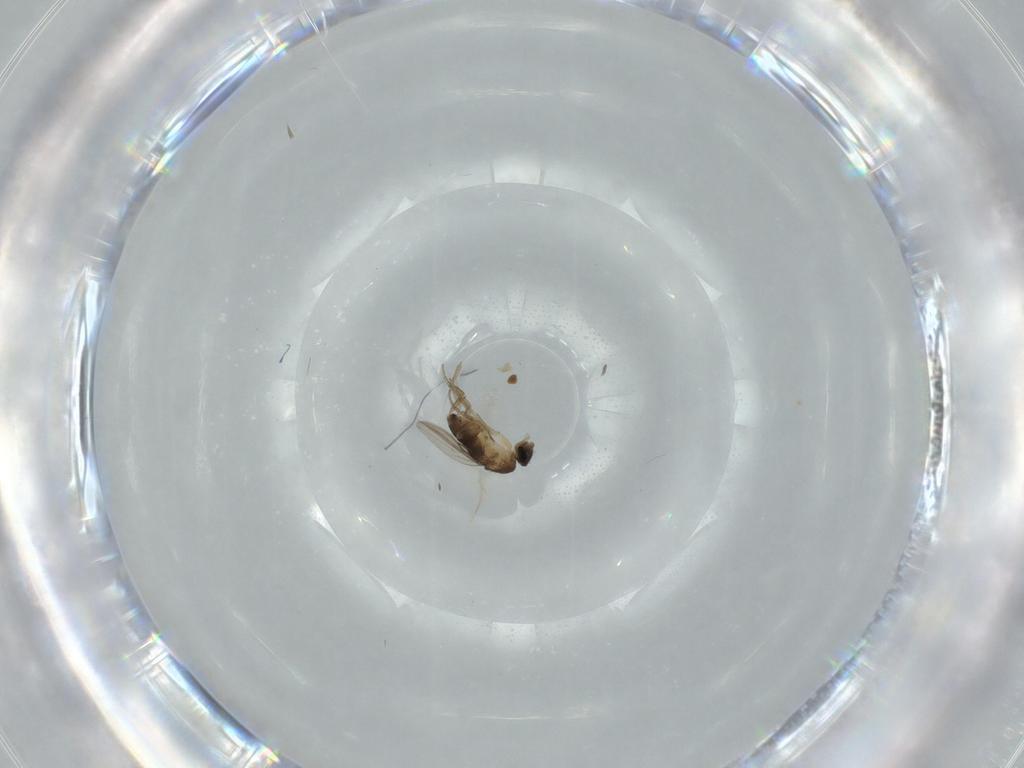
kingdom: Animalia
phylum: Arthropoda
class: Insecta
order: Diptera
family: Phoridae
